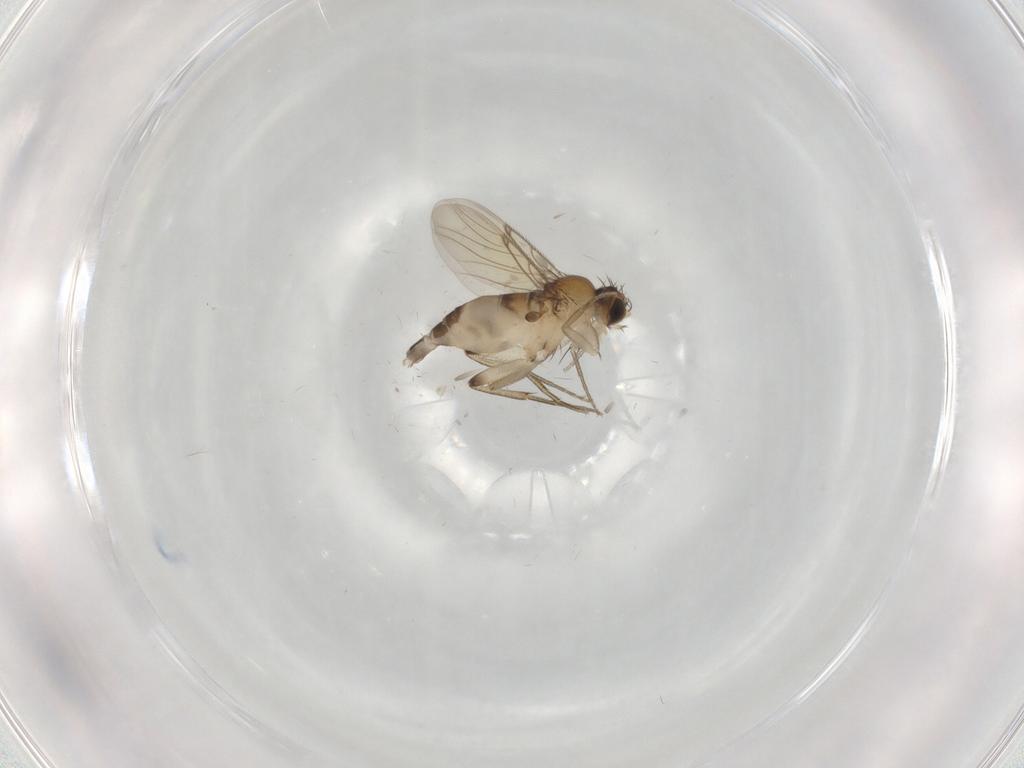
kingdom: Animalia
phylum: Arthropoda
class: Insecta
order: Diptera
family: Phoridae
